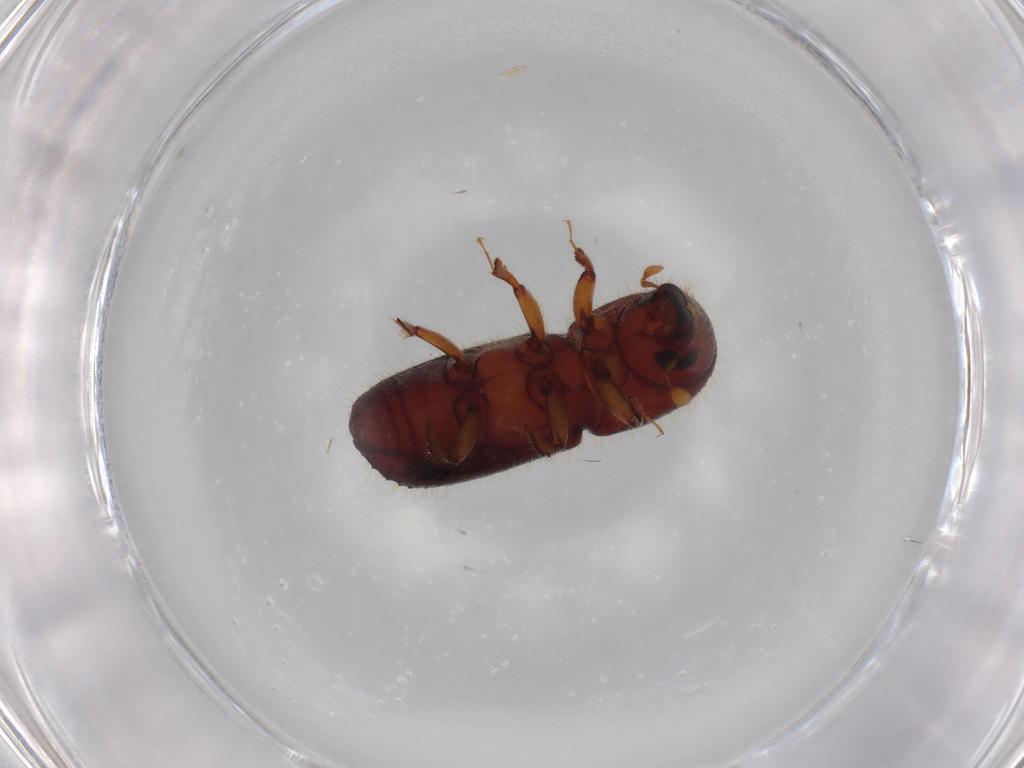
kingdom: Animalia
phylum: Arthropoda
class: Insecta
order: Coleoptera
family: Curculionidae
